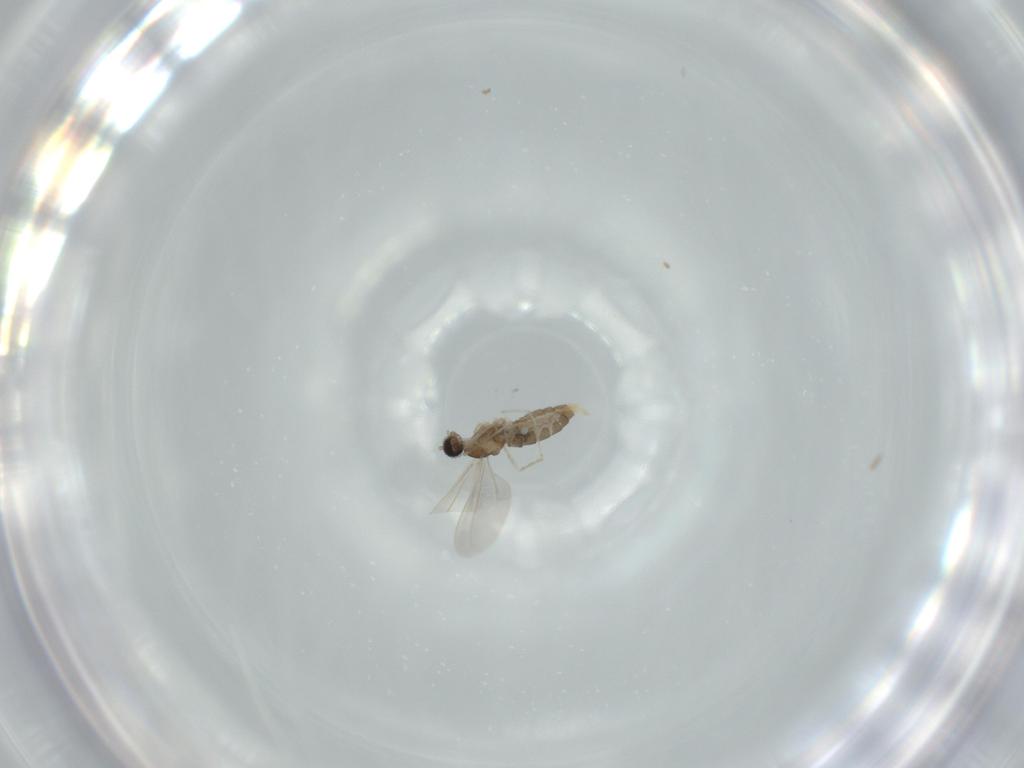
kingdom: Animalia
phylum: Arthropoda
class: Insecta
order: Diptera
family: Cecidomyiidae
